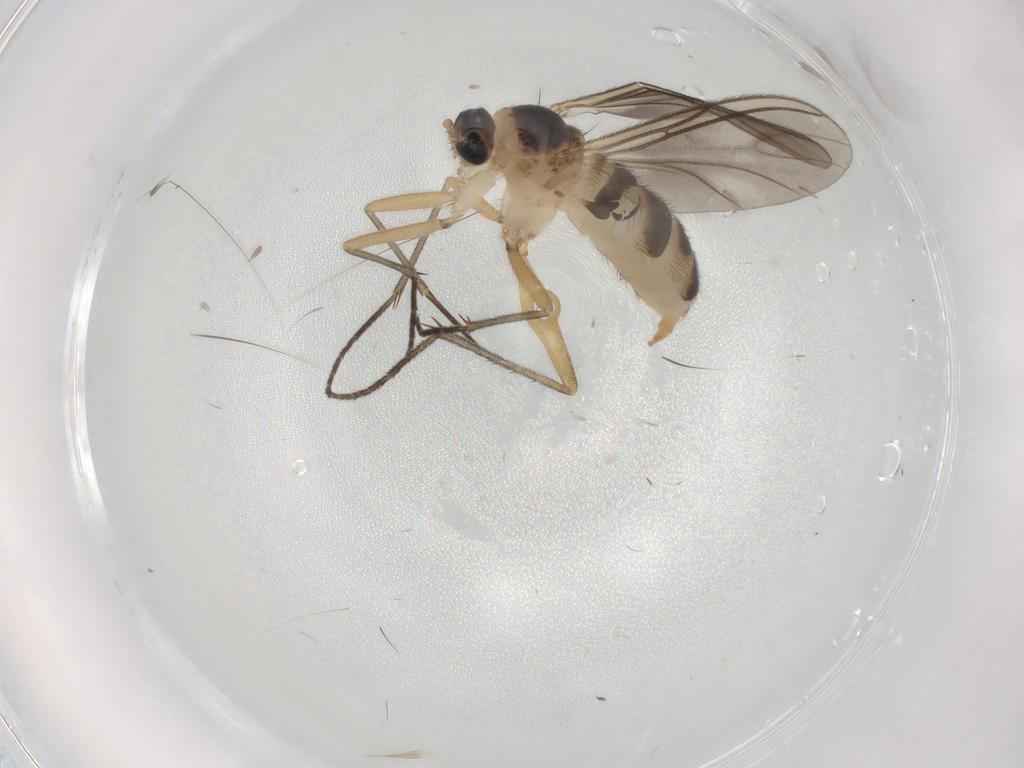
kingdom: Animalia
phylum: Arthropoda
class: Insecta
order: Diptera
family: Sciaridae
